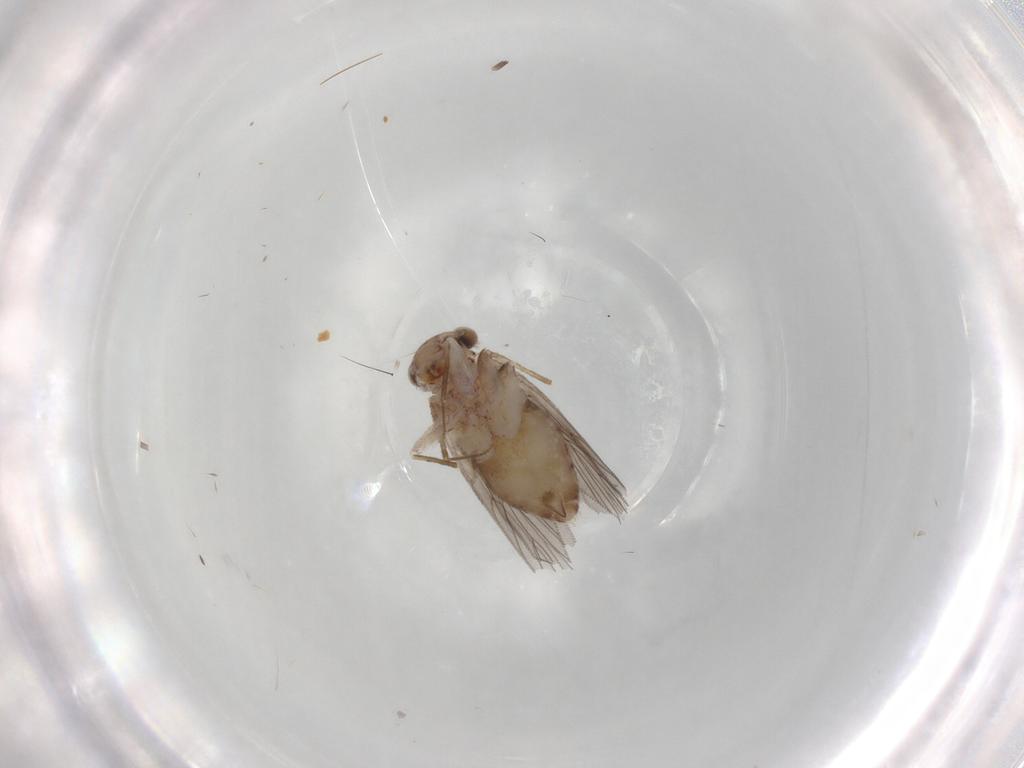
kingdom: Animalia
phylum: Arthropoda
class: Insecta
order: Psocodea
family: Lepidopsocidae
